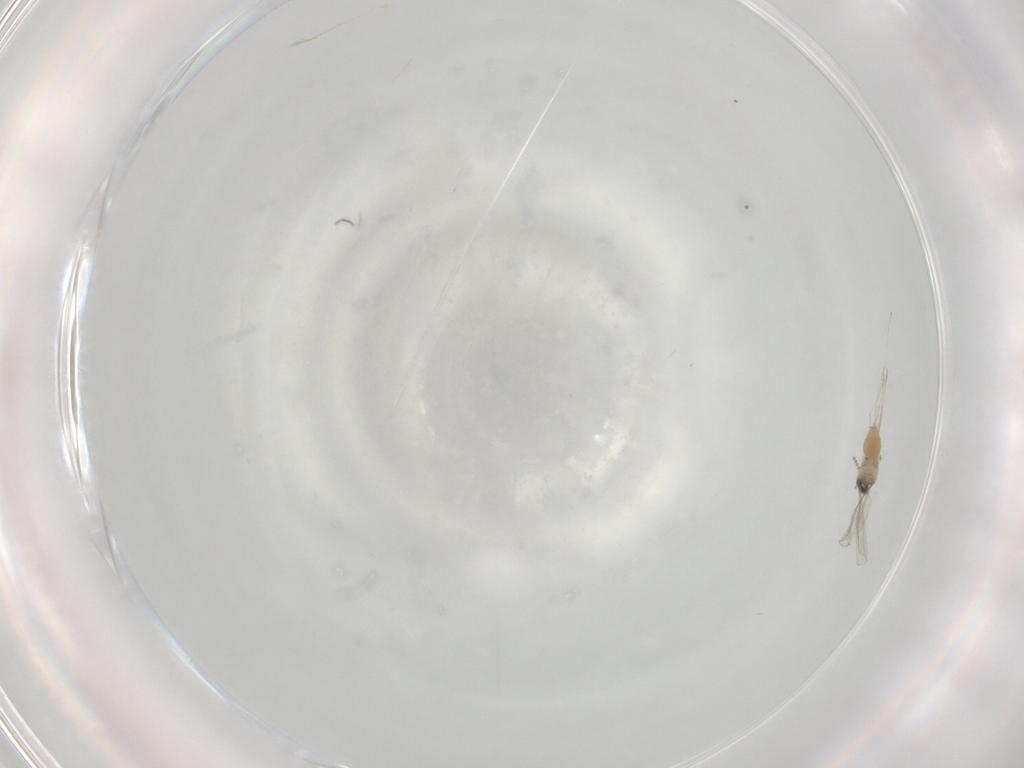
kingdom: Animalia
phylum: Arthropoda
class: Insecta
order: Diptera
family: Cecidomyiidae
